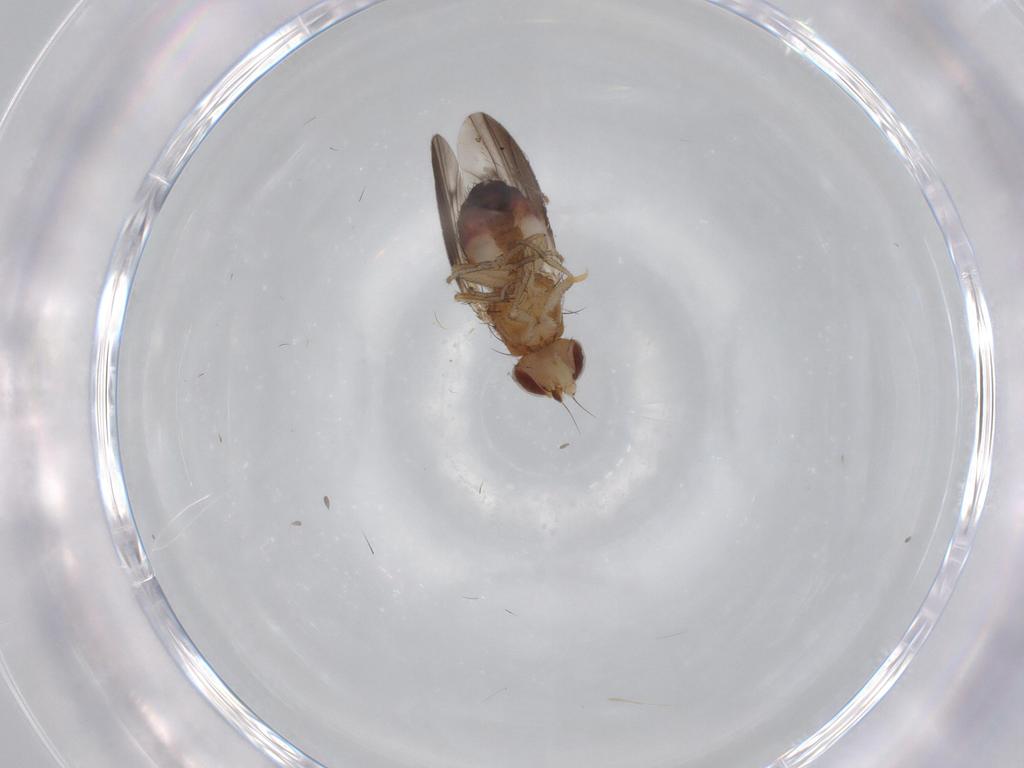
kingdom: Animalia
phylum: Arthropoda
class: Insecta
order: Diptera
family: Heleomyzidae
